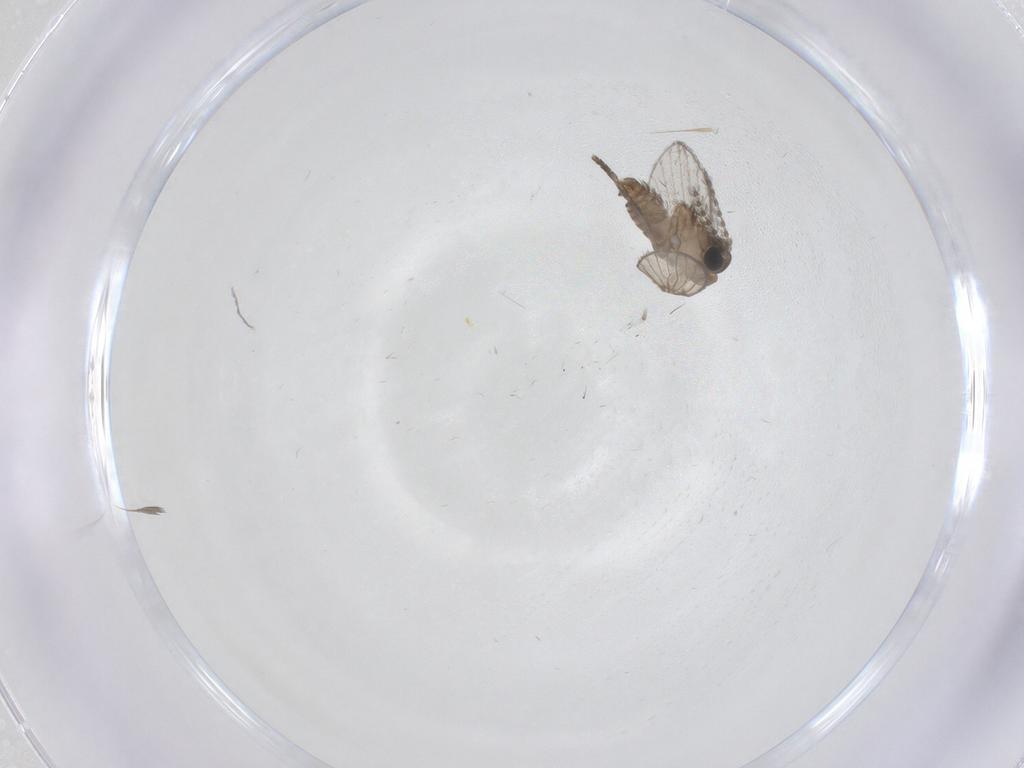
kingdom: Animalia
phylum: Arthropoda
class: Insecta
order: Diptera
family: Psychodidae
